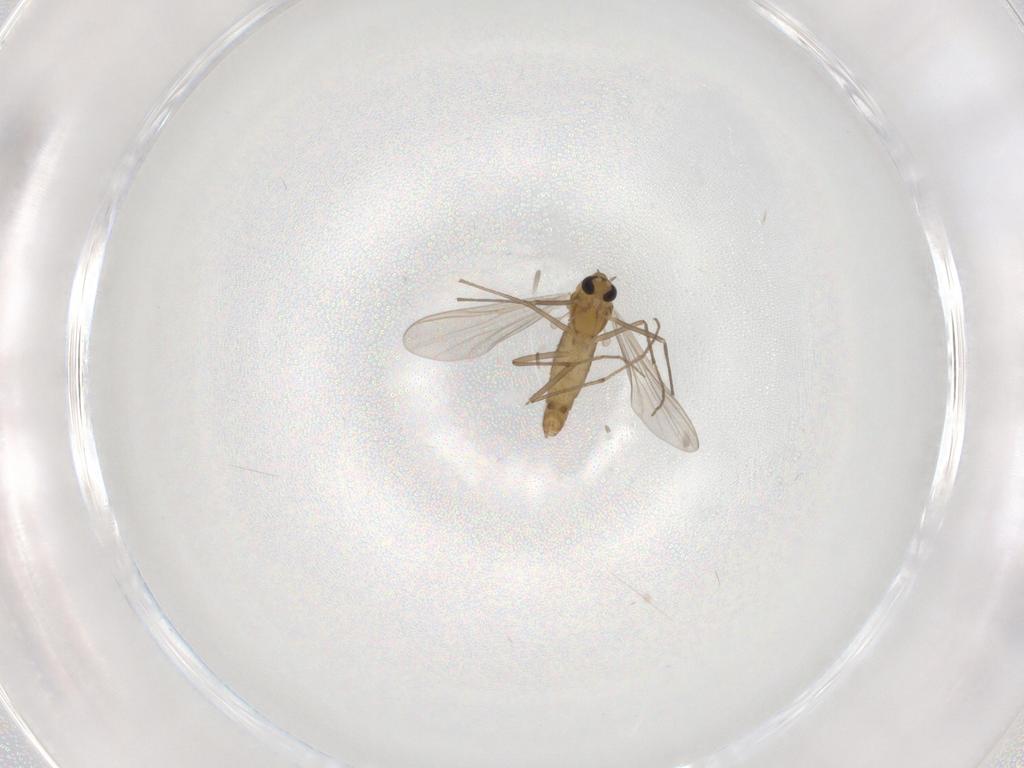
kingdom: Animalia
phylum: Arthropoda
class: Insecta
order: Diptera
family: Chironomidae
